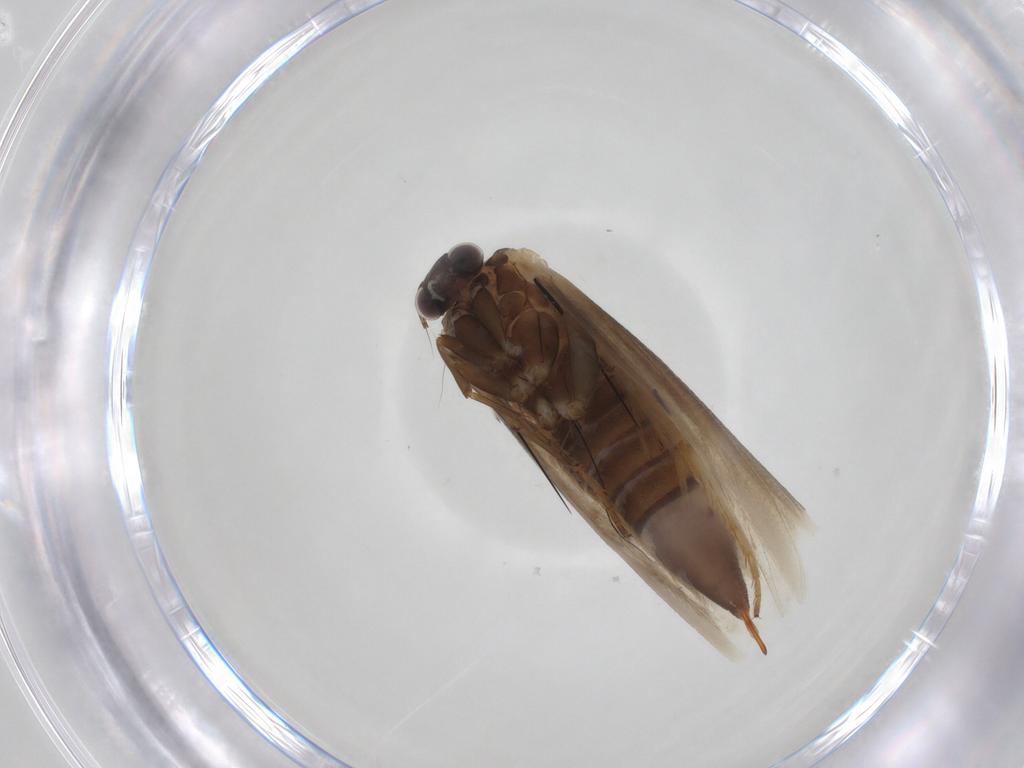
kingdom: Animalia
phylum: Arthropoda
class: Insecta
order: Lepidoptera
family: Tridentaformidae
